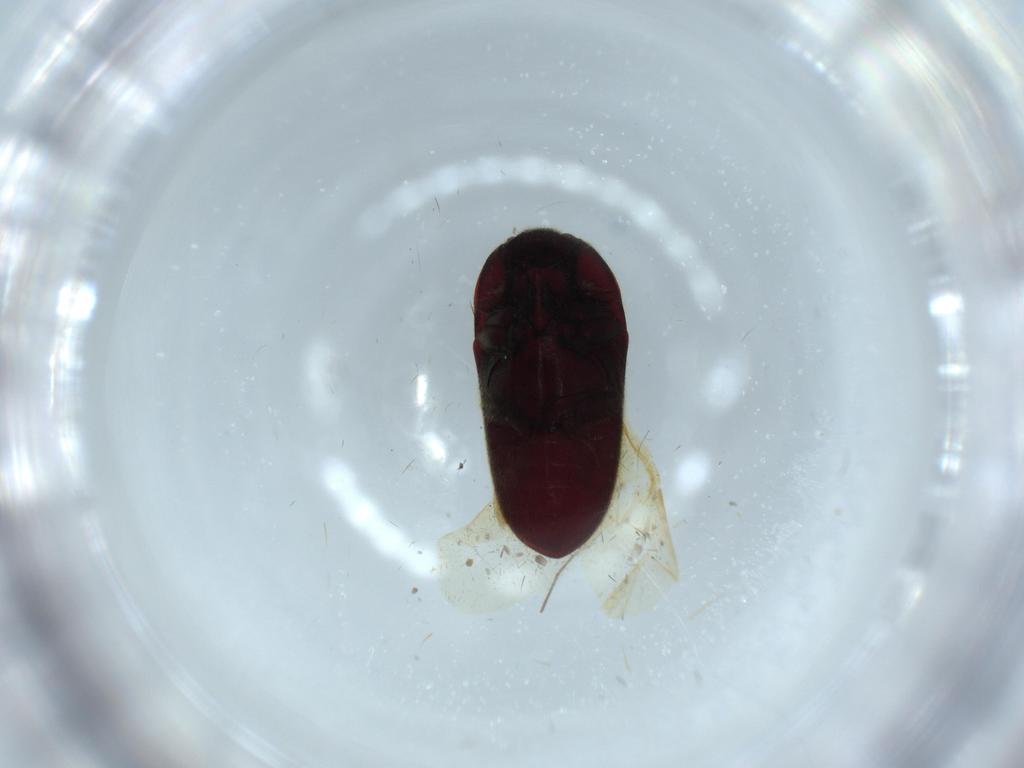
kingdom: Animalia
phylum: Arthropoda
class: Insecta
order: Coleoptera
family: Throscidae
